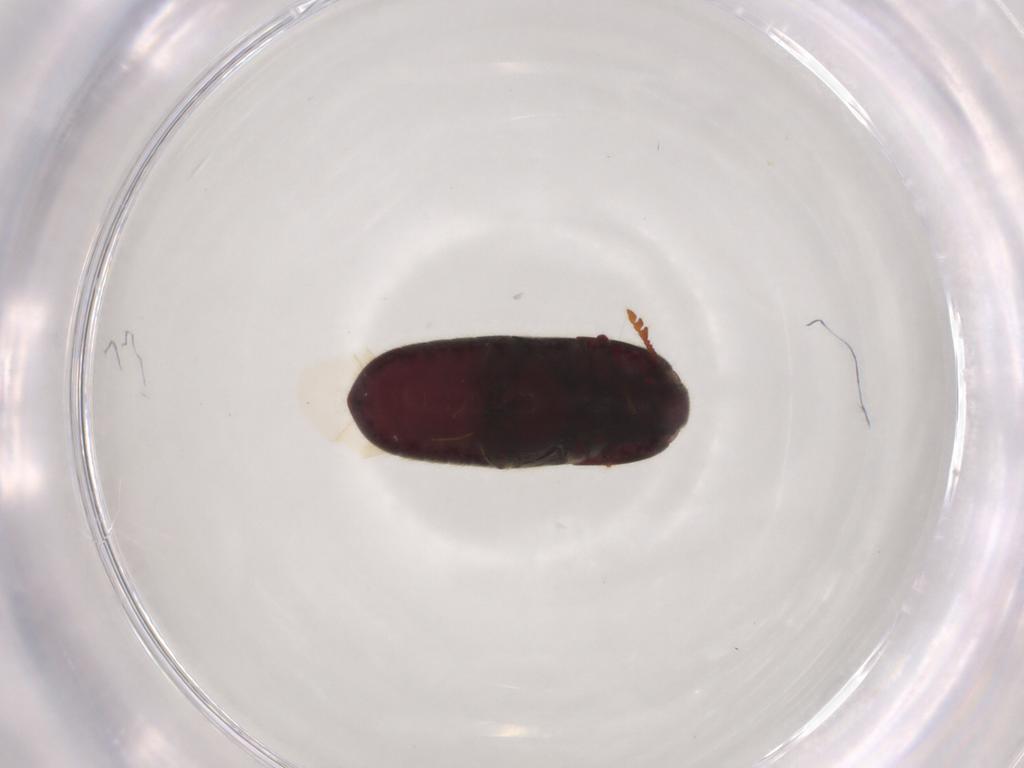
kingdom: Animalia
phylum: Arthropoda
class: Insecta
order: Coleoptera
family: Throscidae
